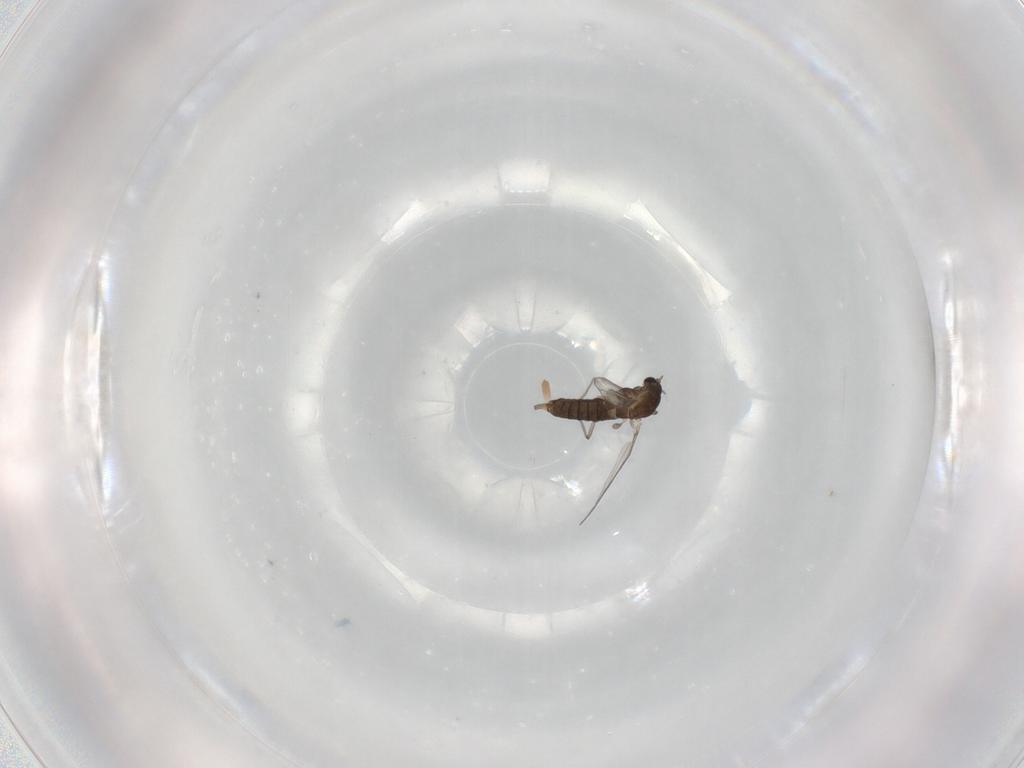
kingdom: Animalia
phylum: Arthropoda
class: Insecta
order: Diptera
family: Chironomidae
